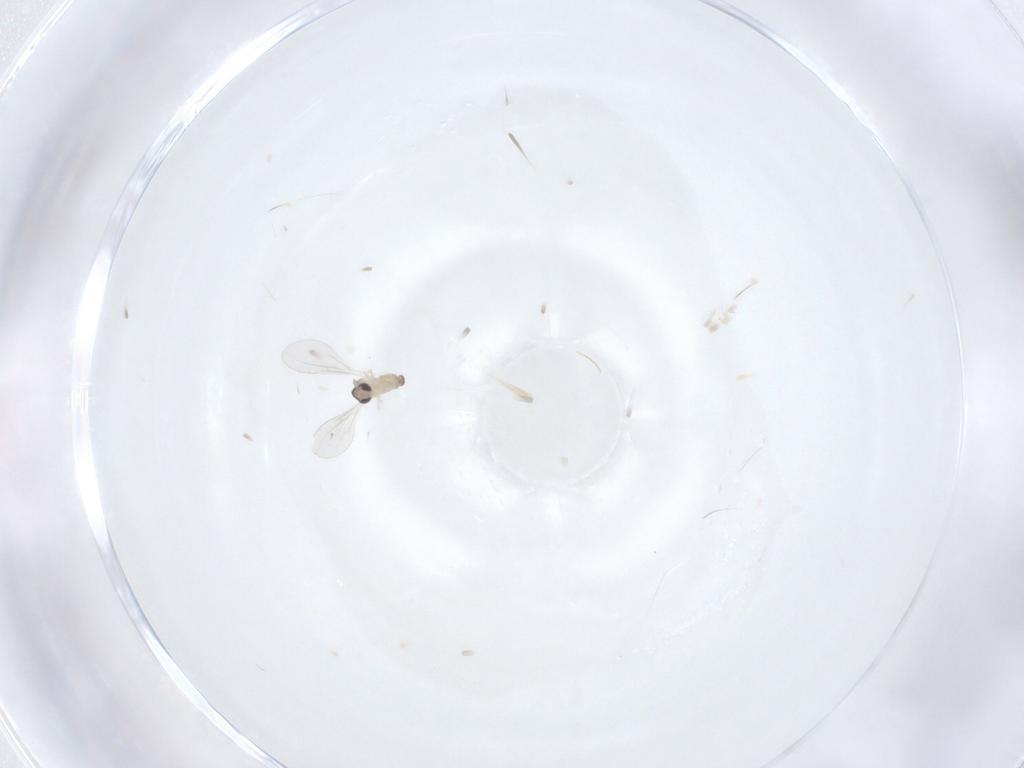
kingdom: Animalia
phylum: Arthropoda
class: Insecta
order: Diptera
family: Cecidomyiidae
